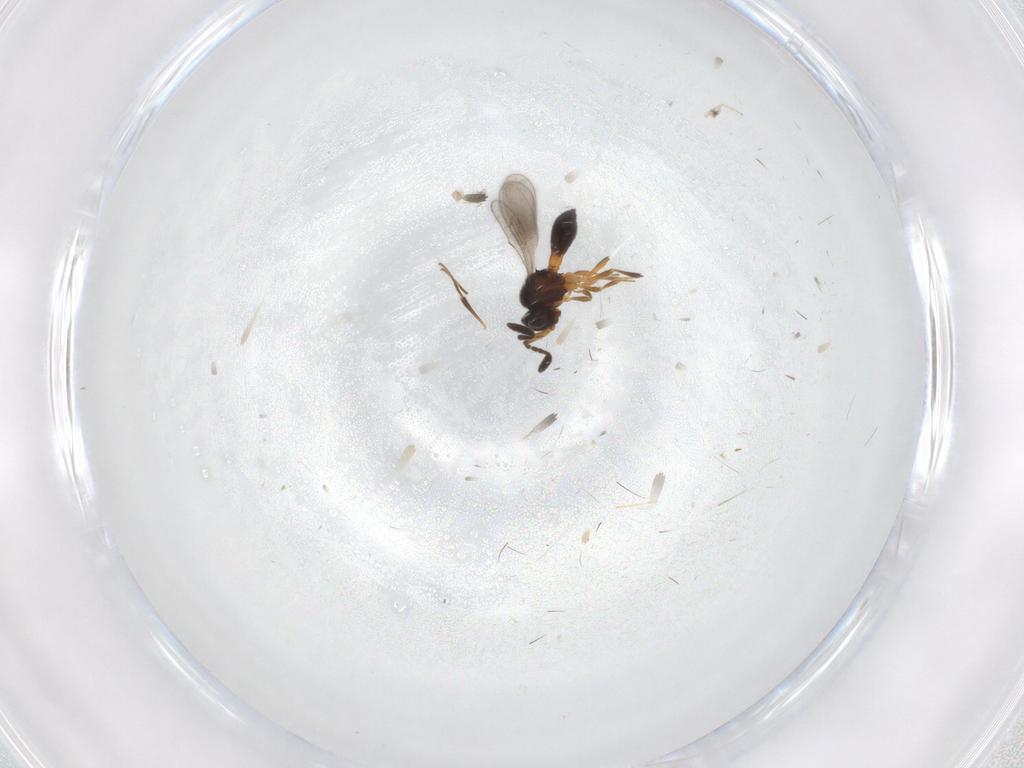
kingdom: Animalia
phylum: Arthropoda
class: Insecta
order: Hymenoptera
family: Scelionidae
